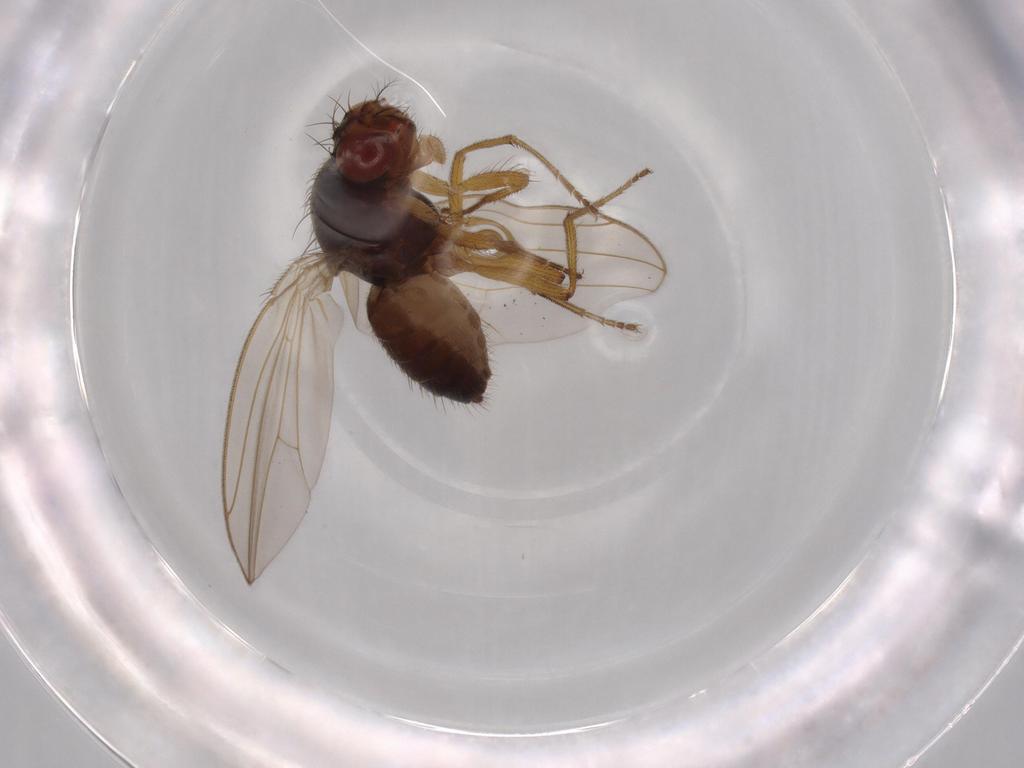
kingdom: Animalia
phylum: Arthropoda
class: Insecta
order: Diptera
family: Drosophilidae
